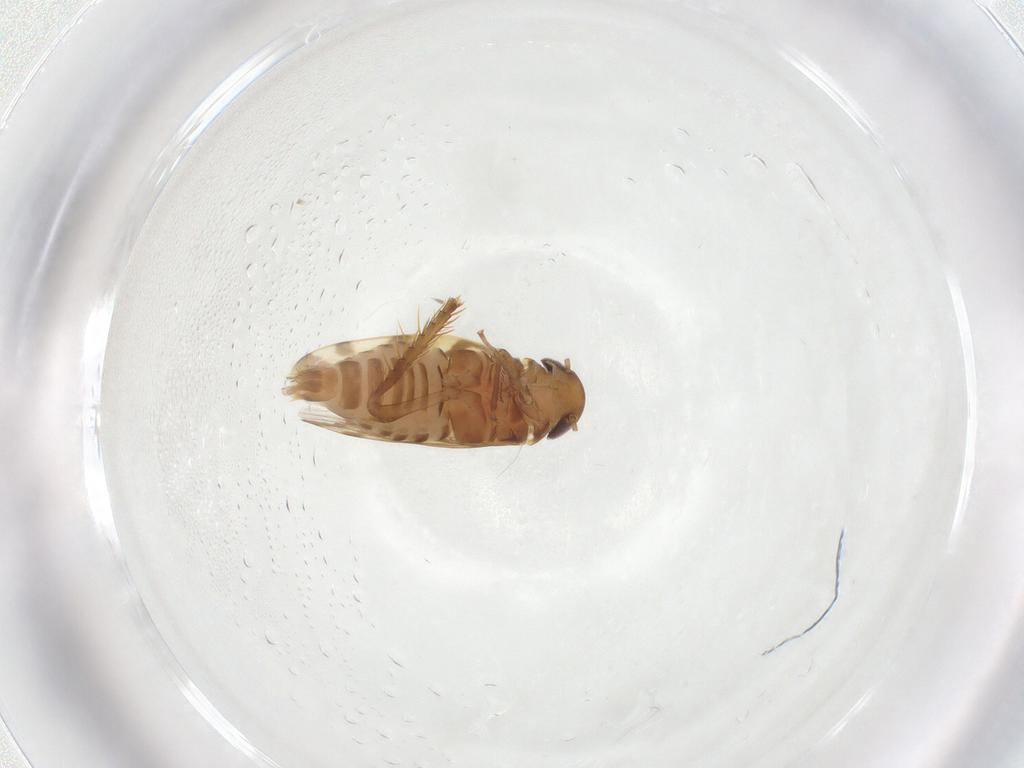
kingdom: Animalia
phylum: Arthropoda
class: Insecta
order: Hemiptera
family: Cicadellidae
